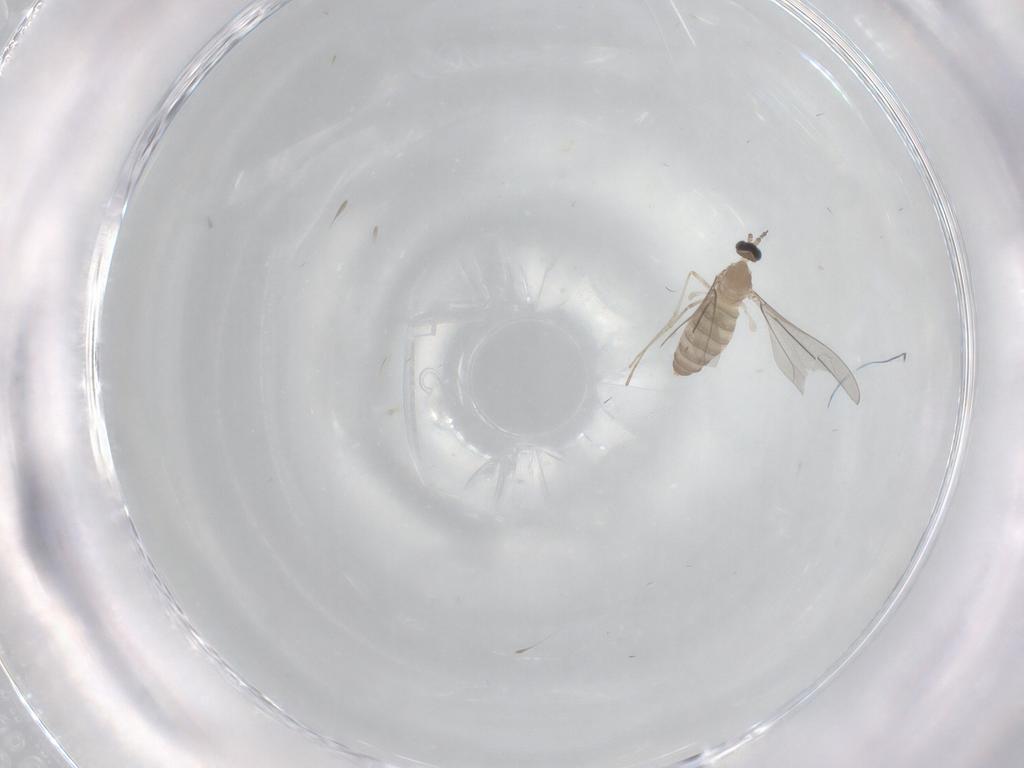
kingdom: Animalia
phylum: Arthropoda
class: Insecta
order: Diptera
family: Cecidomyiidae
